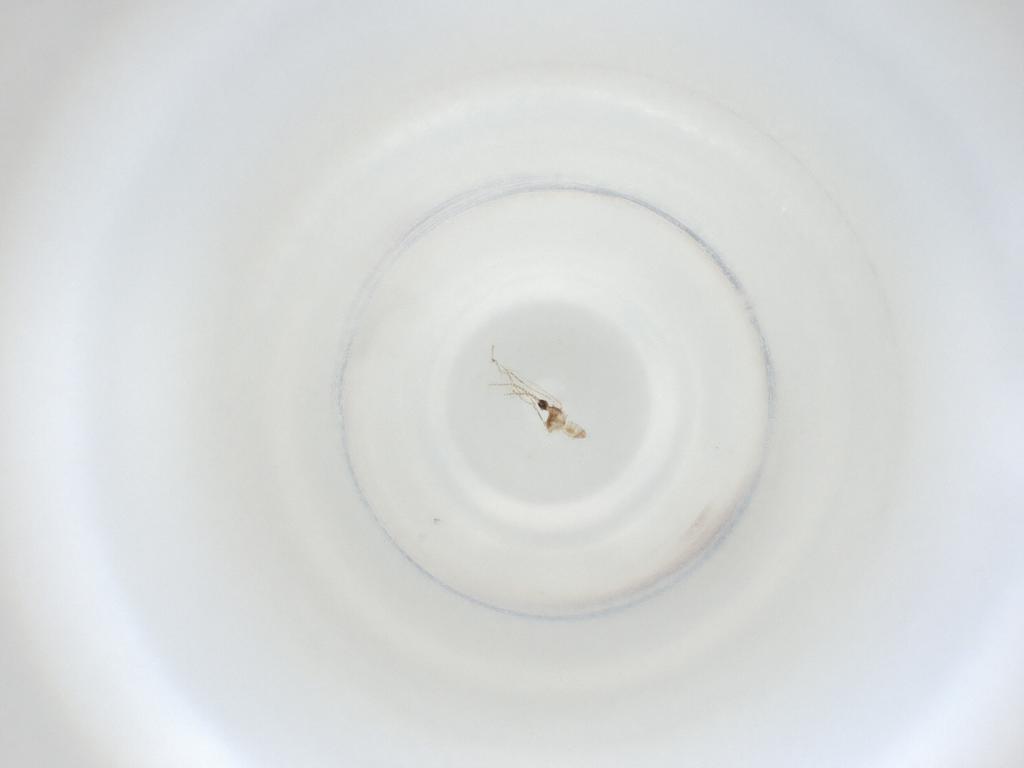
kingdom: Animalia
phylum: Arthropoda
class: Insecta
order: Diptera
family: Cecidomyiidae
